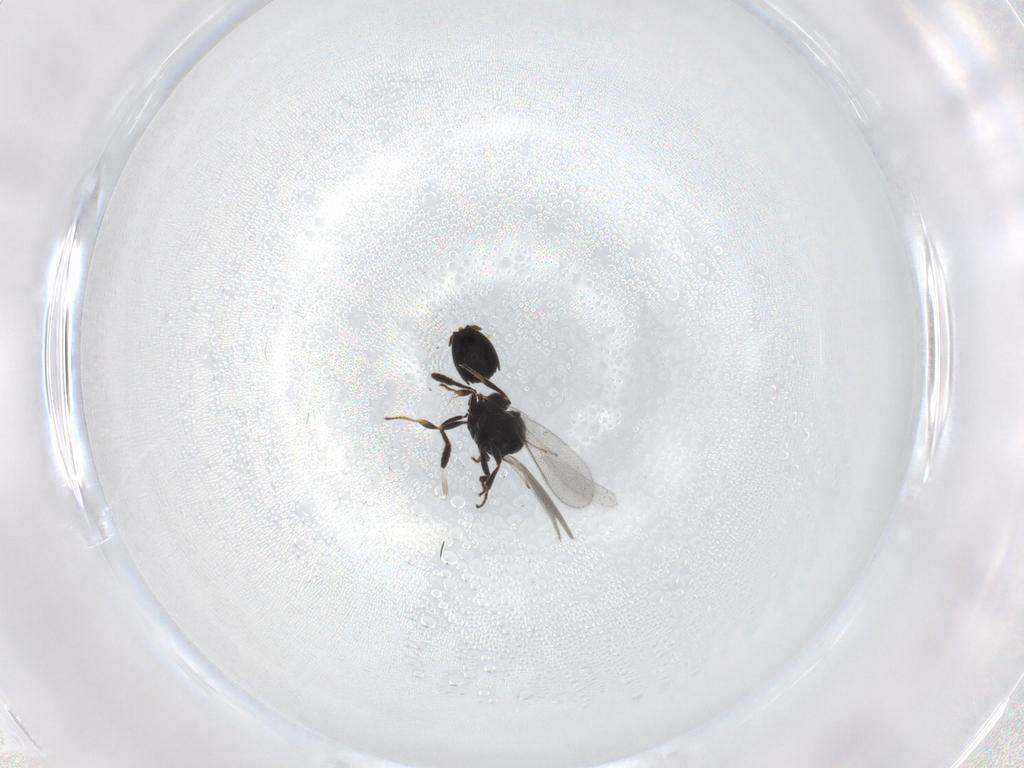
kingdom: Animalia
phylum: Arthropoda
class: Insecta
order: Hymenoptera
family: Scelionidae
